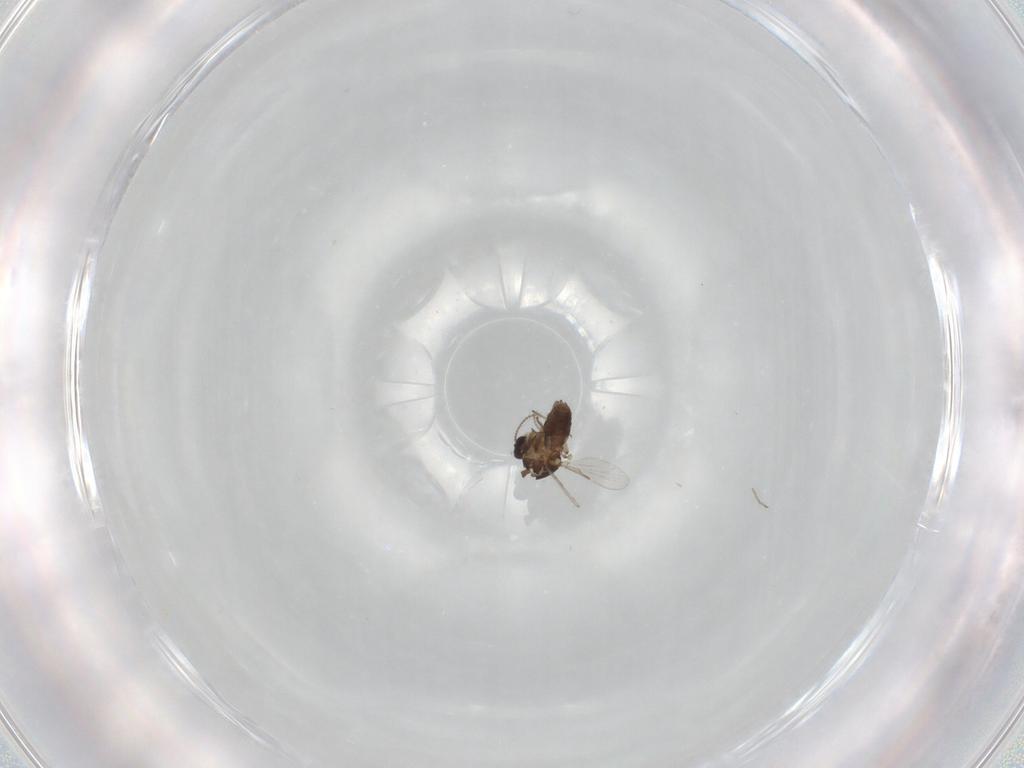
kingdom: Animalia
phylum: Arthropoda
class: Insecta
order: Diptera
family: Ceratopogonidae
